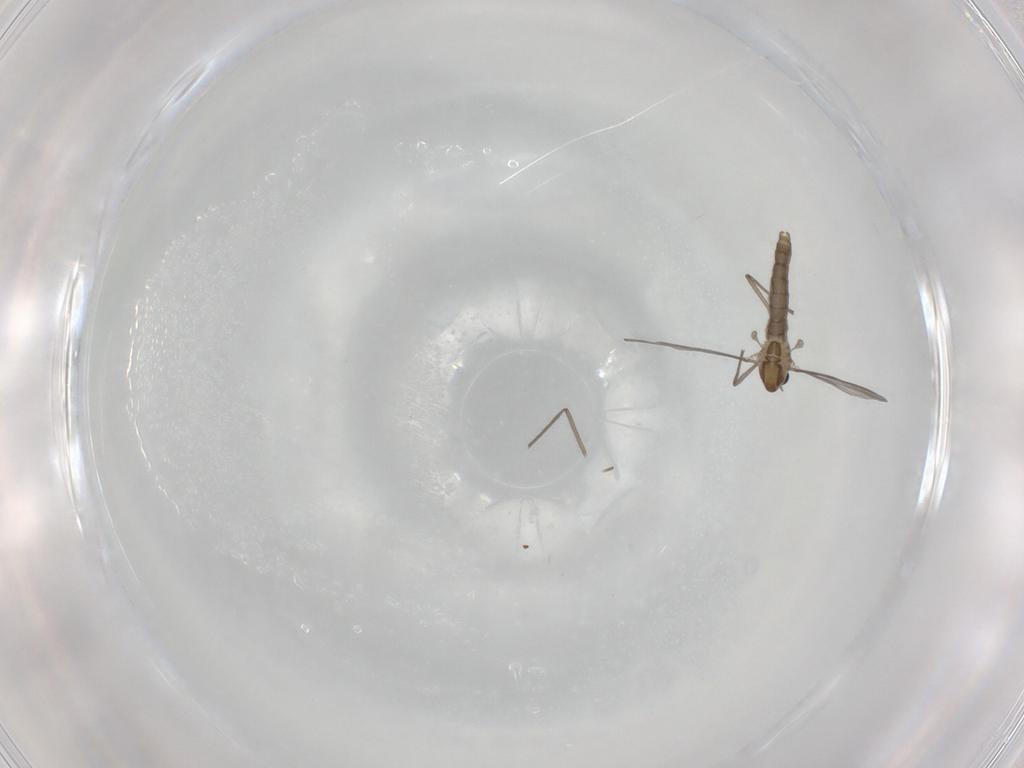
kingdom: Animalia
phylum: Arthropoda
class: Insecta
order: Diptera
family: Chironomidae
